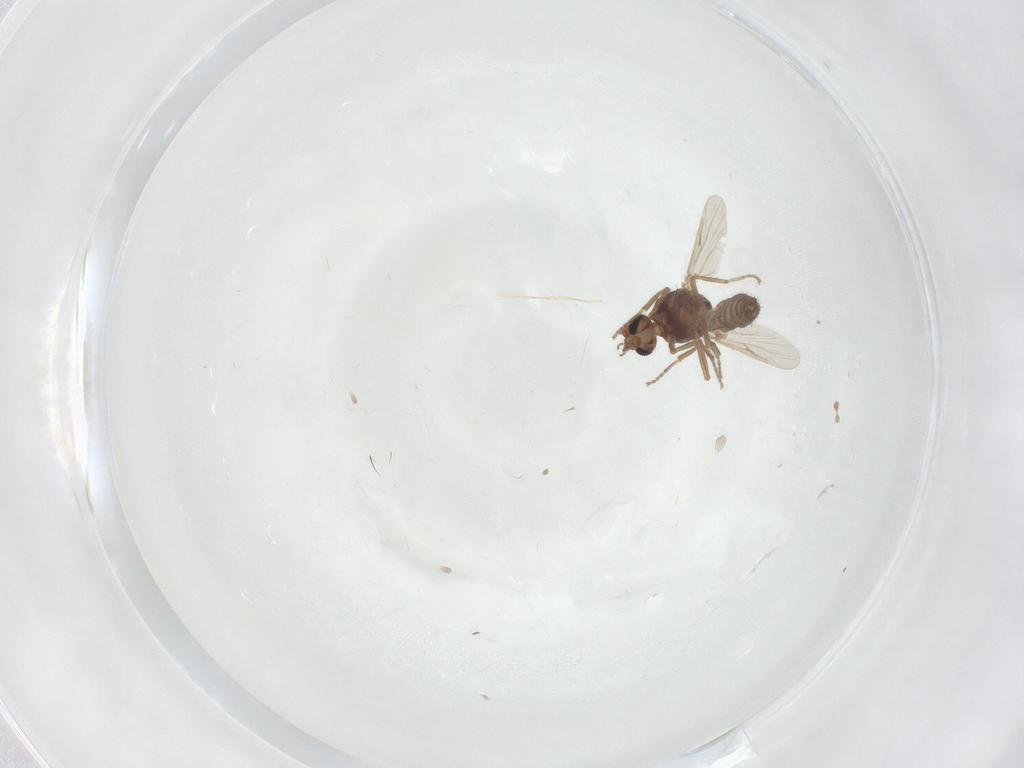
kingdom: Animalia
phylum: Arthropoda
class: Insecta
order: Diptera
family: Ceratopogonidae
